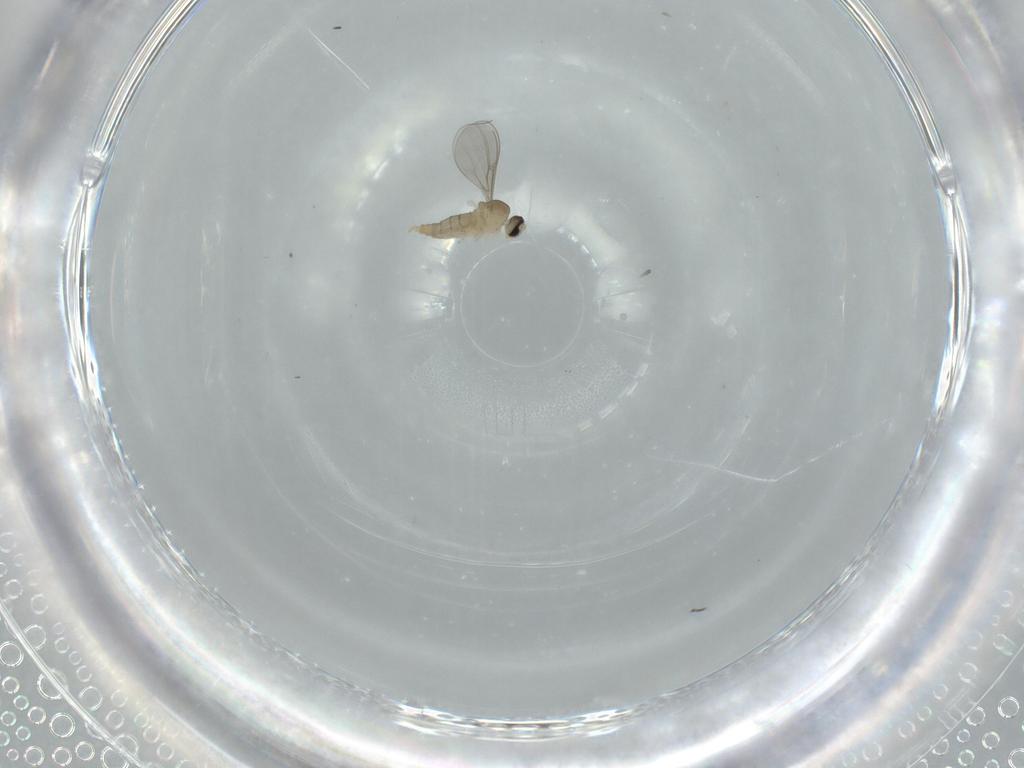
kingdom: Animalia
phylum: Arthropoda
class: Insecta
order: Diptera
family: Cecidomyiidae
